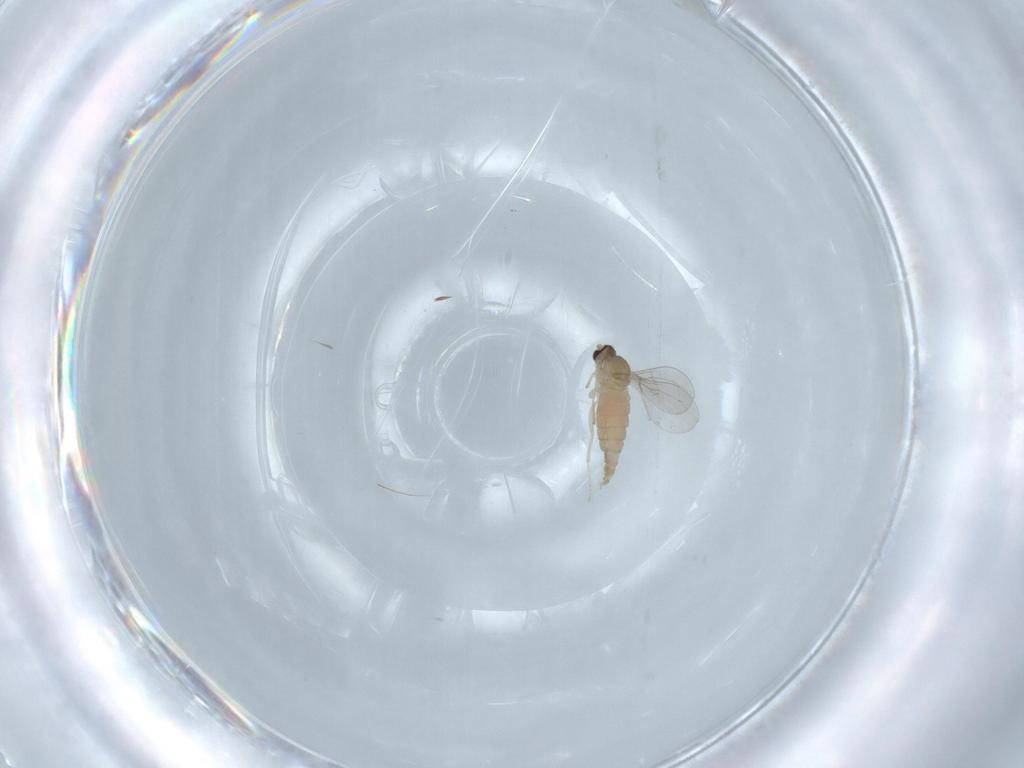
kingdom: Animalia
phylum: Arthropoda
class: Insecta
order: Diptera
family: Cecidomyiidae
